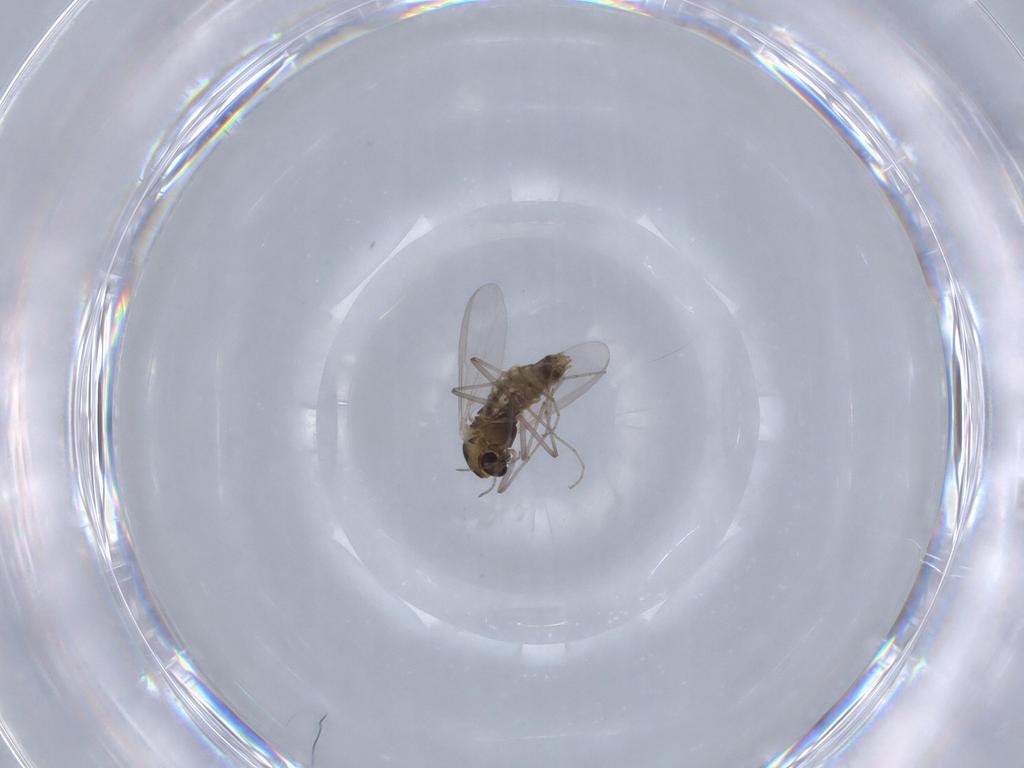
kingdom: Animalia
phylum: Arthropoda
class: Insecta
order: Diptera
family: Chironomidae
